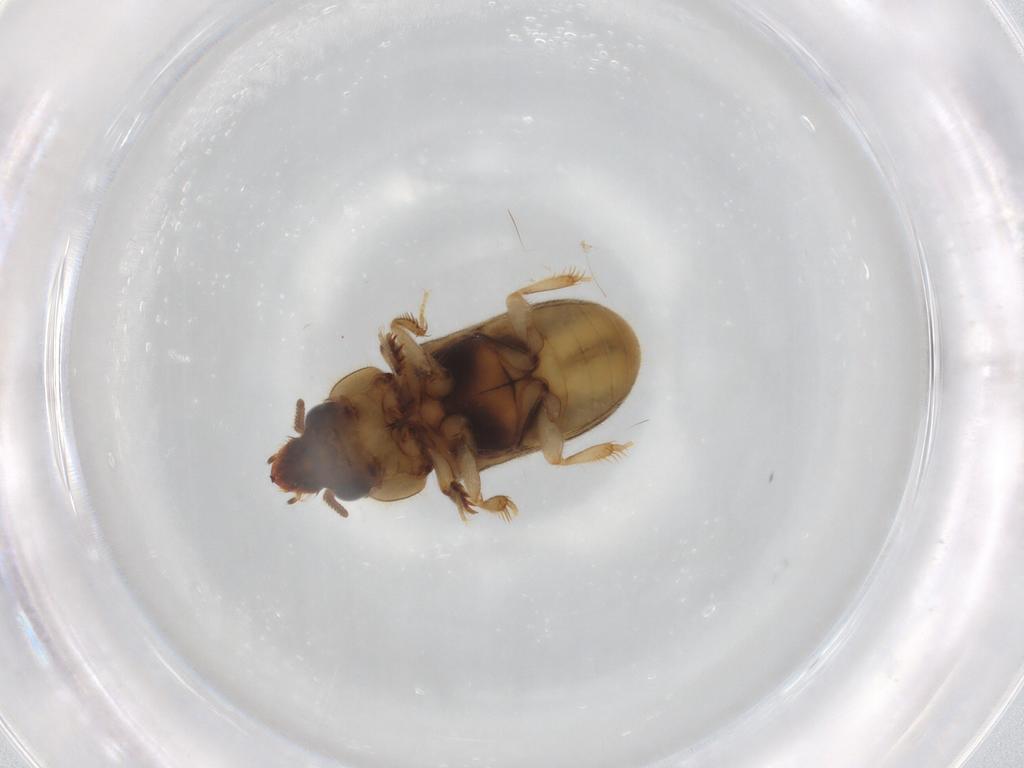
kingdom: Animalia
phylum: Arthropoda
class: Insecta
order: Coleoptera
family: Heteroceridae
